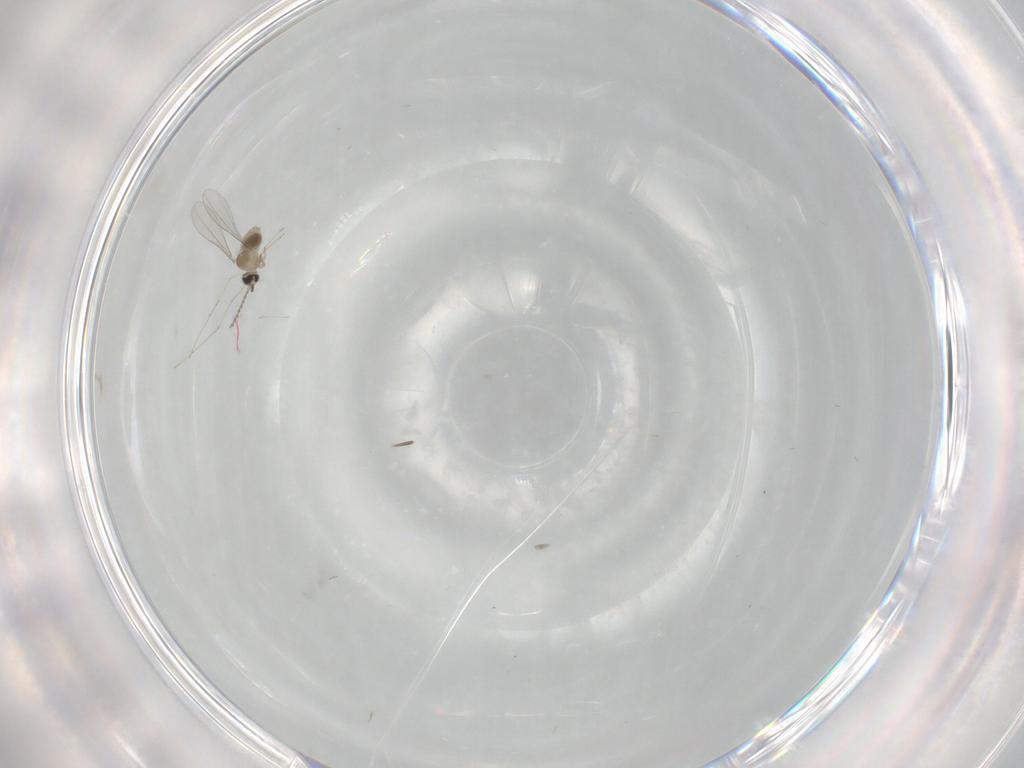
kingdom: Animalia
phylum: Arthropoda
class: Insecta
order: Diptera
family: Cecidomyiidae
